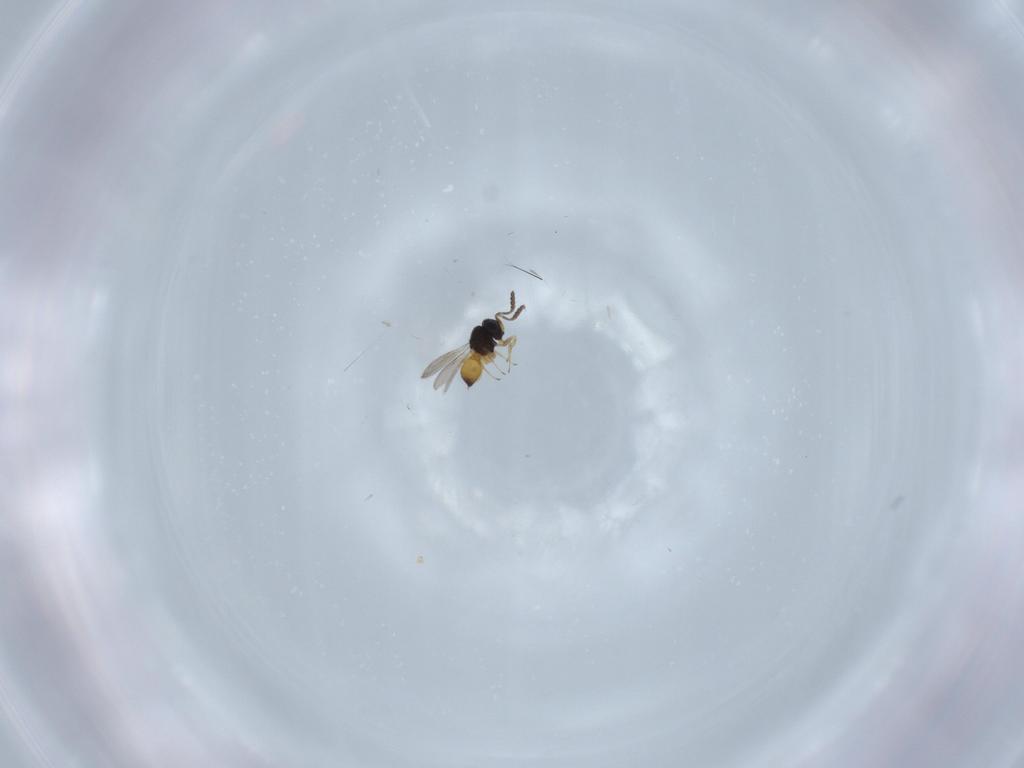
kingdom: Animalia
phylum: Arthropoda
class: Insecta
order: Hymenoptera
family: Scelionidae
